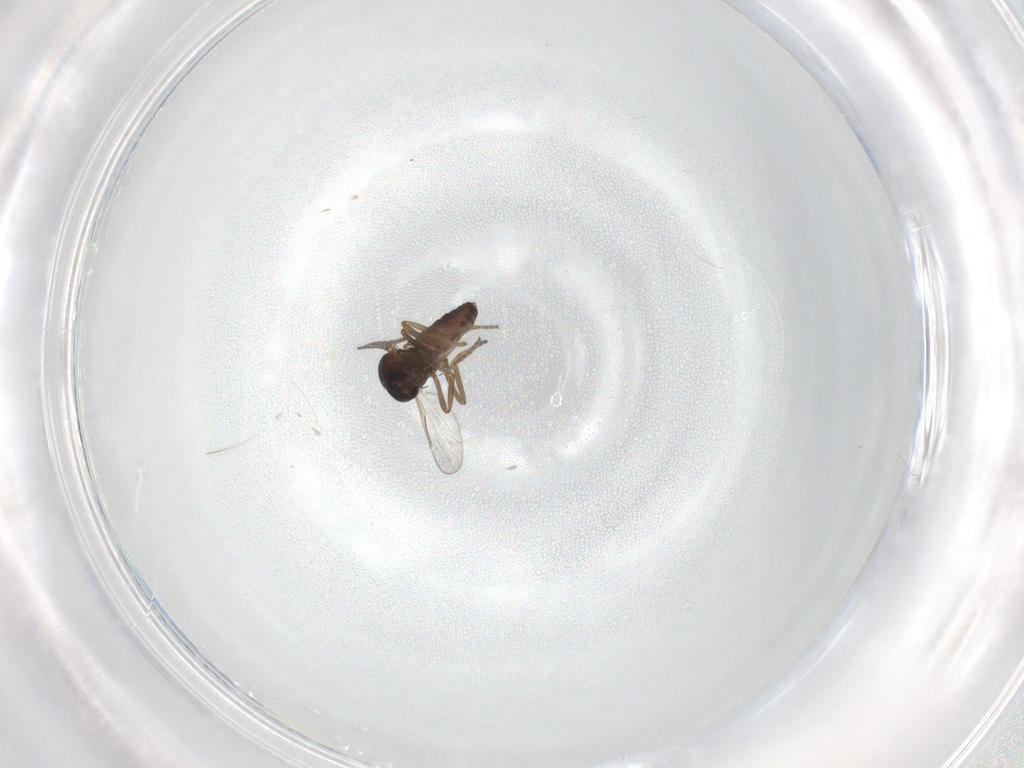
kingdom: Animalia
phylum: Arthropoda
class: Insecta
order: Diptera
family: Ceratopogonidae
